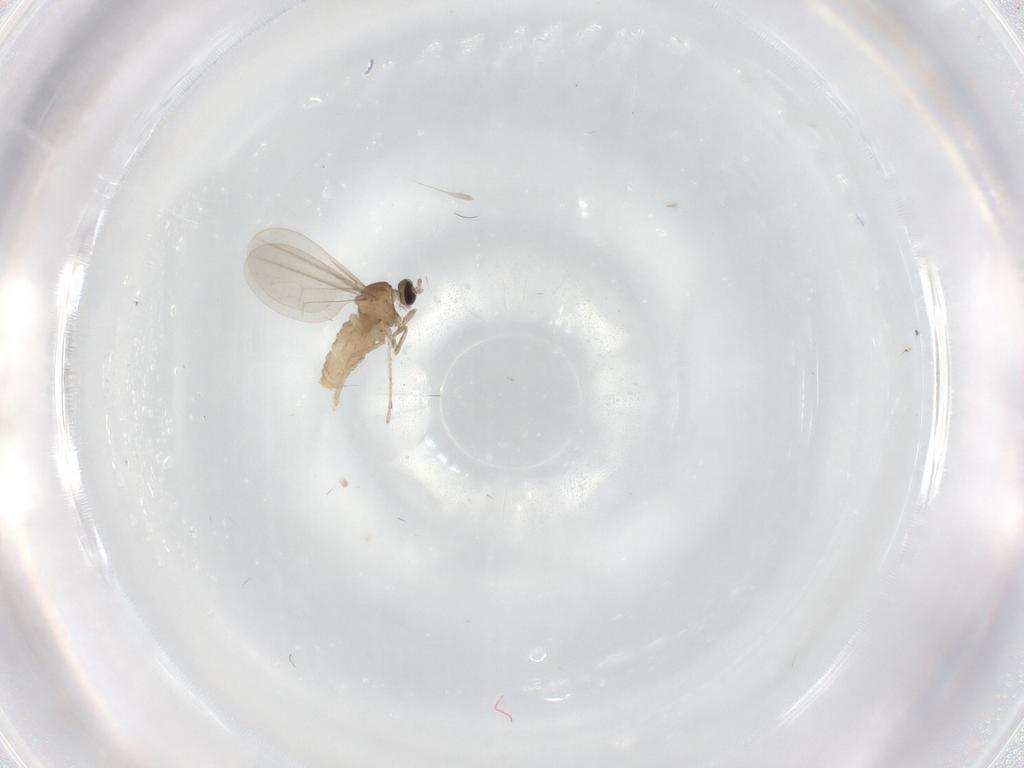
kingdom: Animalia
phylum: Arthropoda
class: Insecta
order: Diptera
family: Cecidomyiidae
